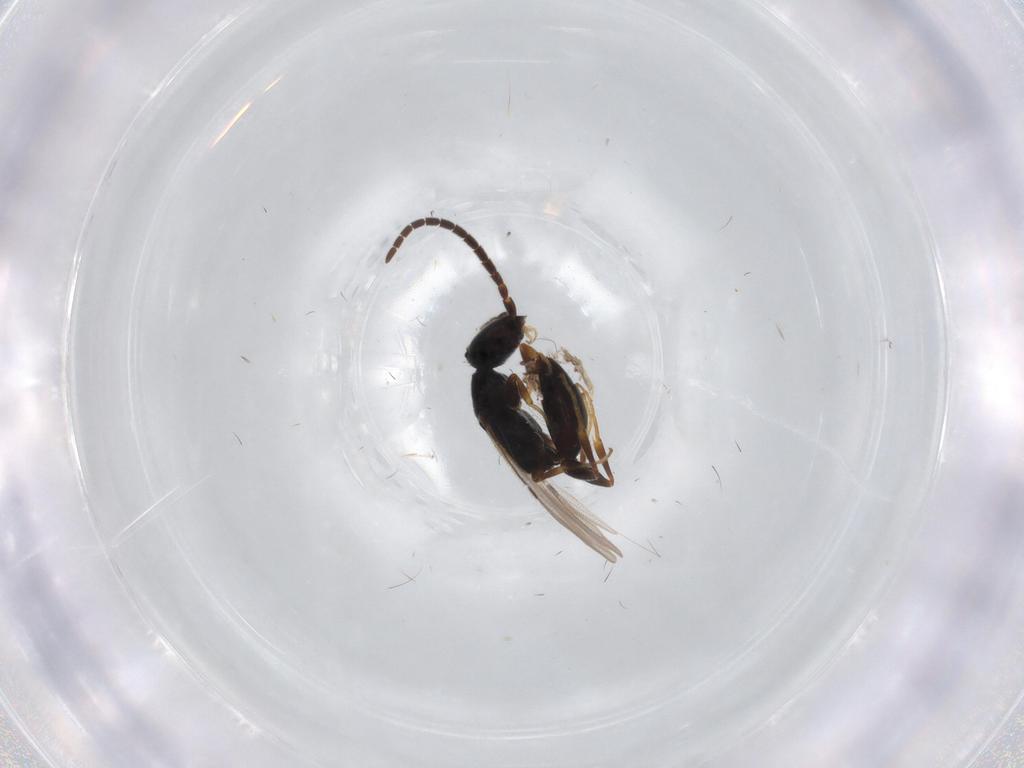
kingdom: Animalia
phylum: Arthropoda
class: Insecta
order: Hymenoptera
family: Bethylidae
